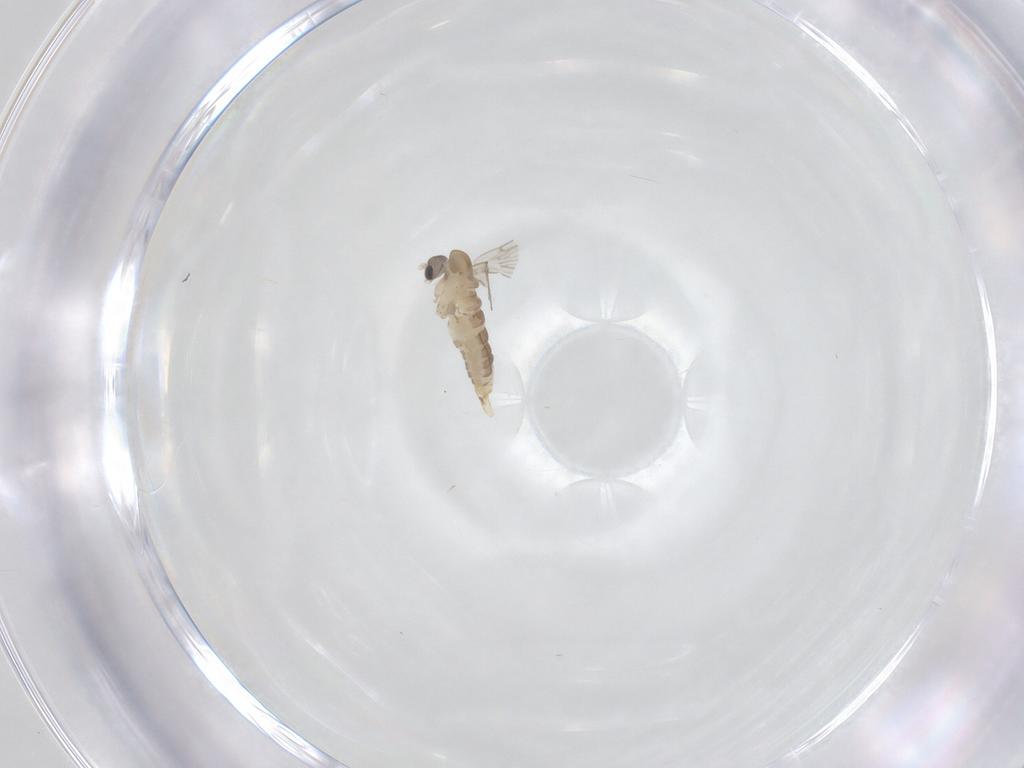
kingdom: Animalia
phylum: Arthropoda
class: Insecta
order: Diptera
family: Psychodidae
